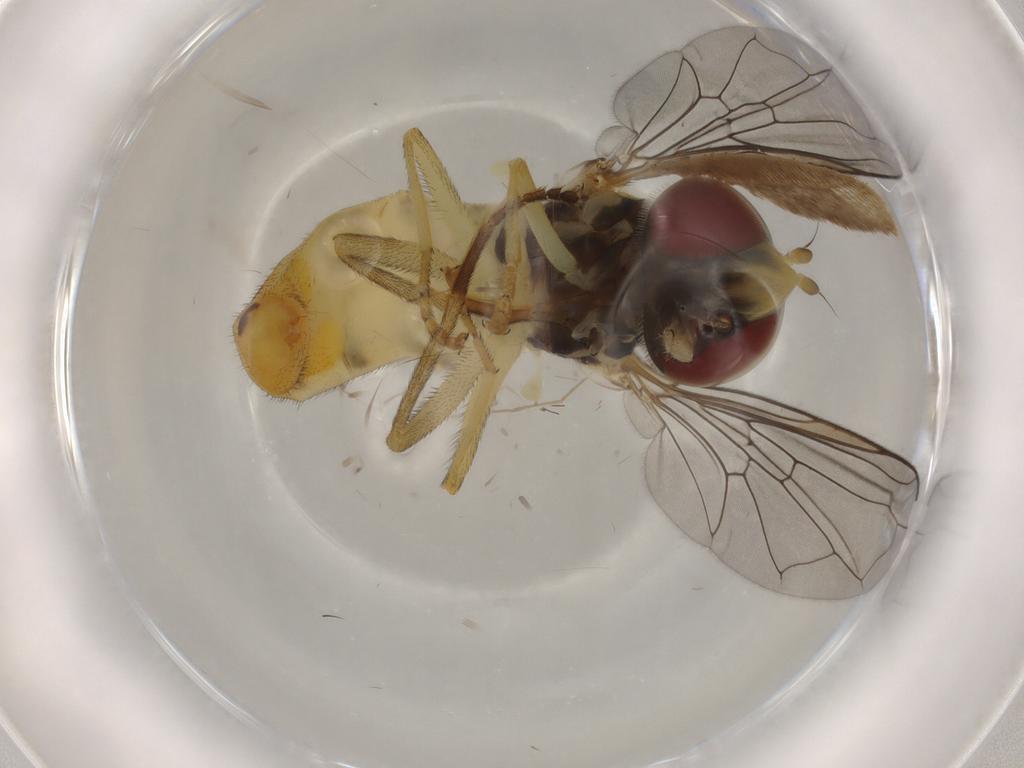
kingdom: Animalia
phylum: Arthropoda
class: Insecta
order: Diptera
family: Syrphidae
